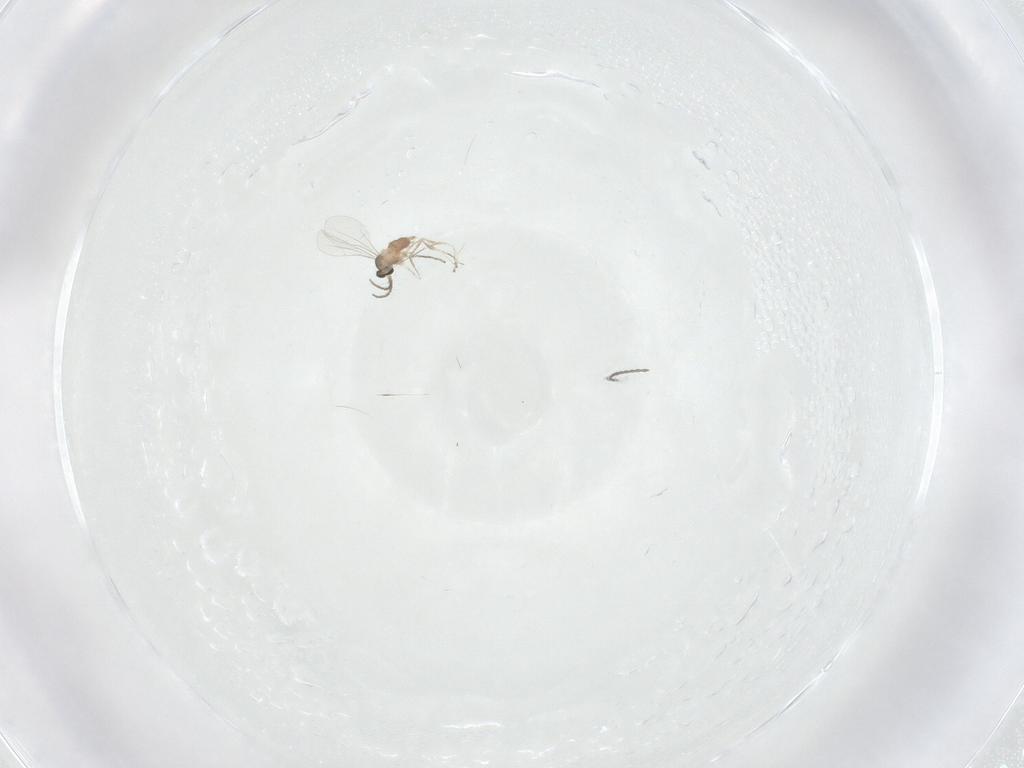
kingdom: Animalia
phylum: Arthropoda
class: Insecta
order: Diptera
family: Cecidomyiidae
